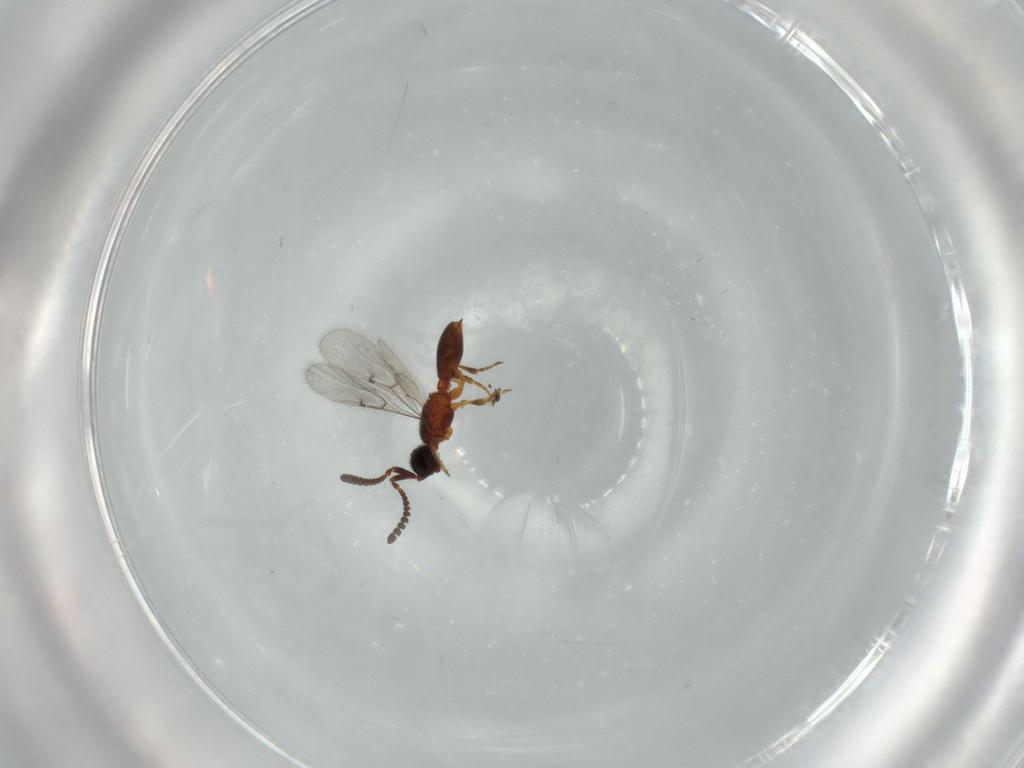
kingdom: Animalia
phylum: Arthropoda
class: Insecta
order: Hymenoptera
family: Diapriidae
